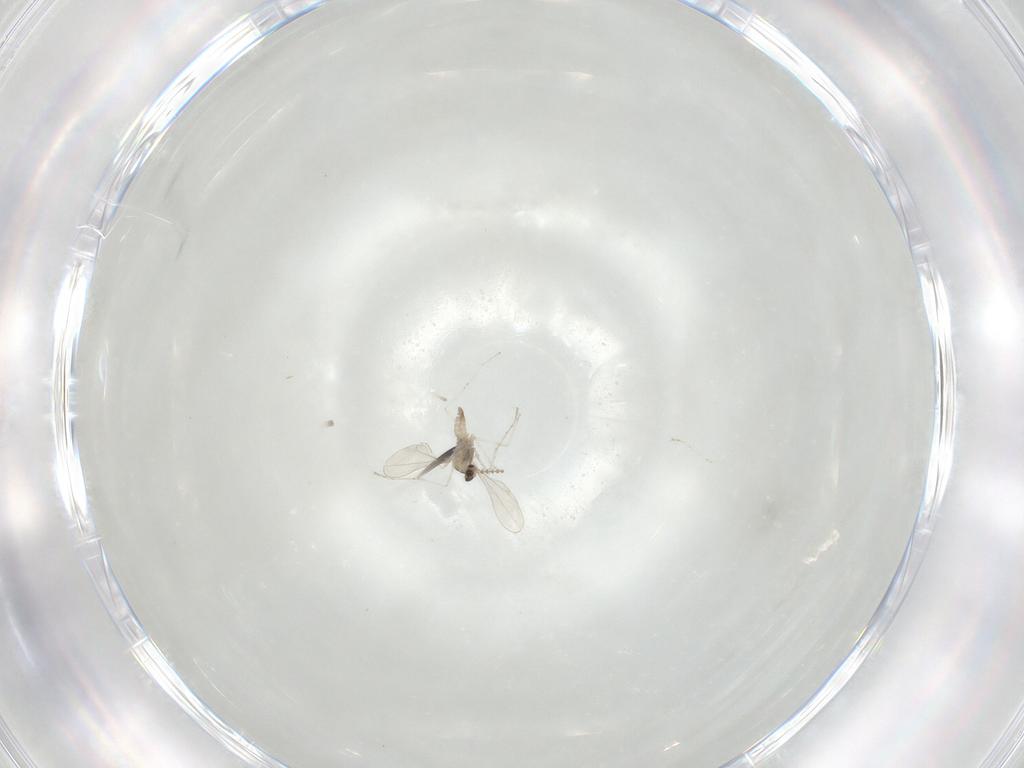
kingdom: Animalia
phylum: Arthropoda
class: Insecta
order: Diptera
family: Cecidomyiidae
